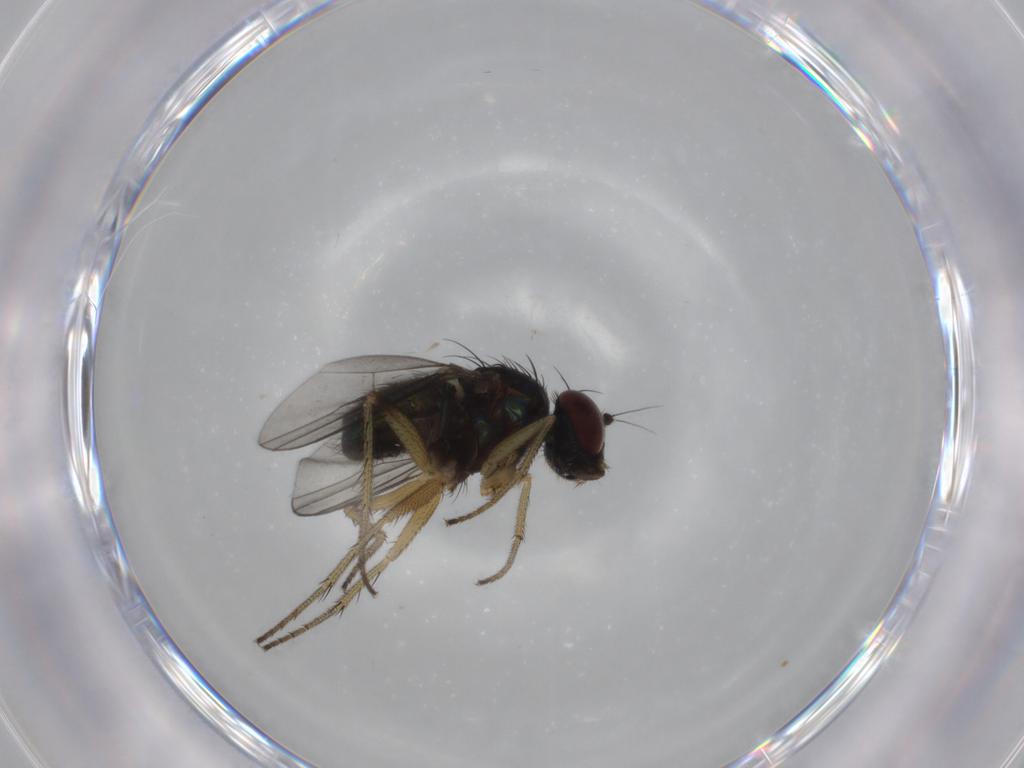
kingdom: Animalia
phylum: Arthropoda
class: Insecta
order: Diptera
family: Dolichopodidae
